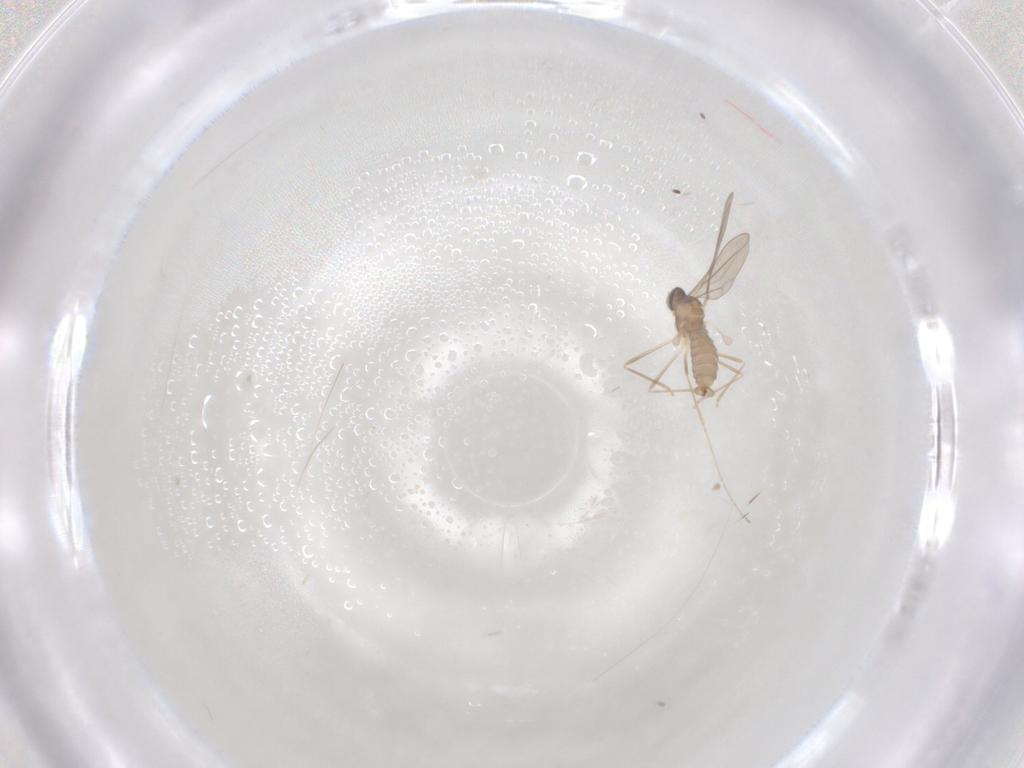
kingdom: Animalia
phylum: Arthropoda
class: Insecta
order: Diptera
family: Cecidomyiidae
